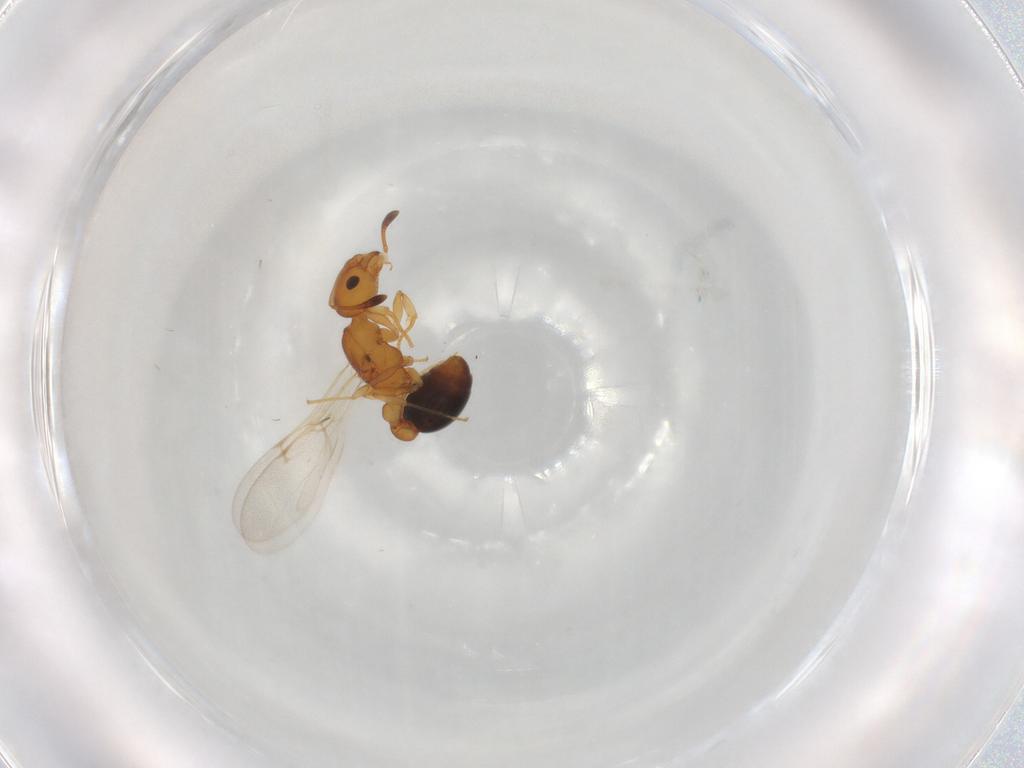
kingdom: Animalia
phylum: Arthropoda
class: Insecta
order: Hymenoptera
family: Formicidae
